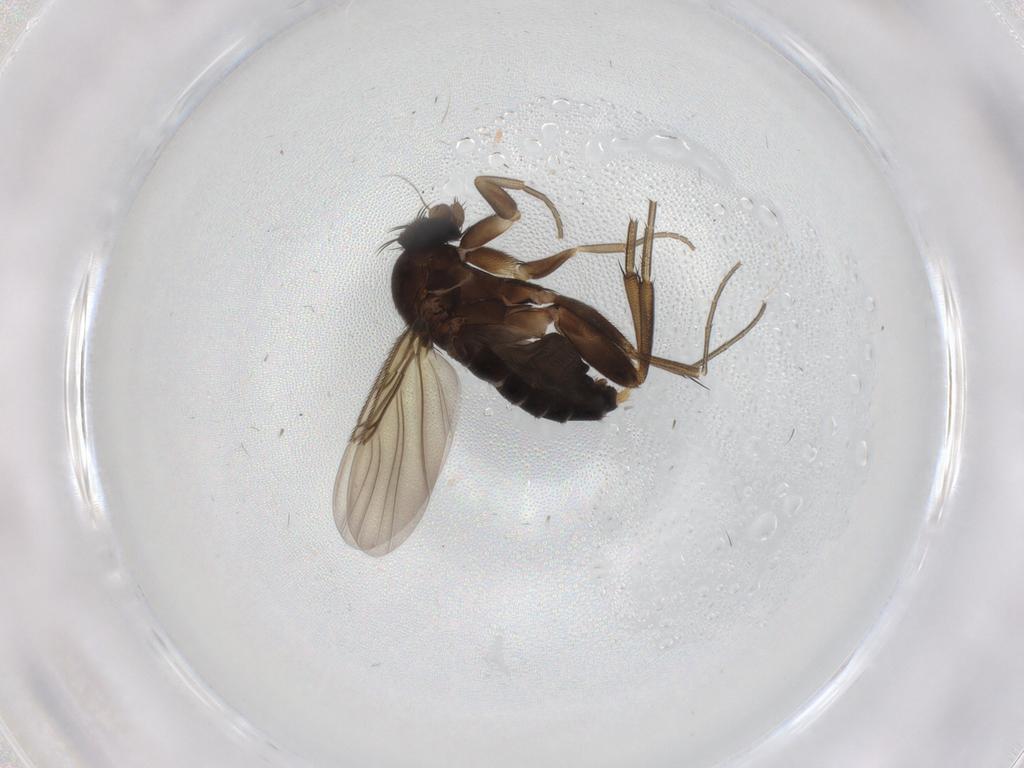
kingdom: Animalia
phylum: Arthropoda
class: Insecta
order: Diptera
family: Phoridae
